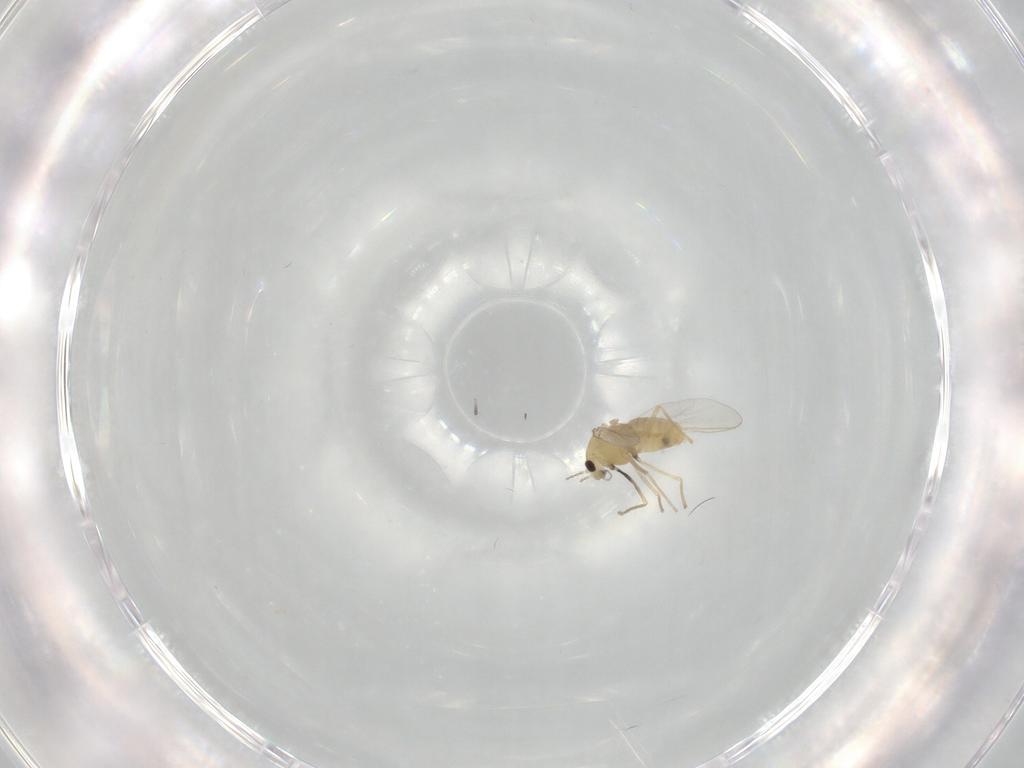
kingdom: Animalia
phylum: Arthropoda
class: Insecta
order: Diptera
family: Chironomidae
